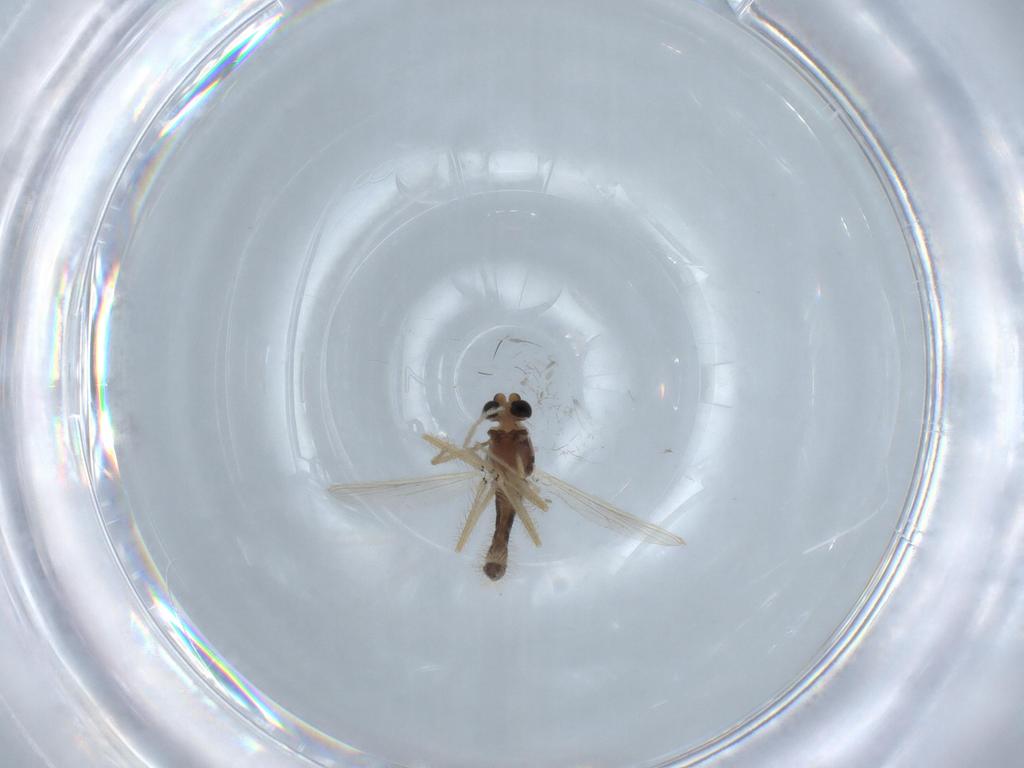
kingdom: Animalia
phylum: Arthropoda
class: Insecta
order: Diptera
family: Chironomidae
